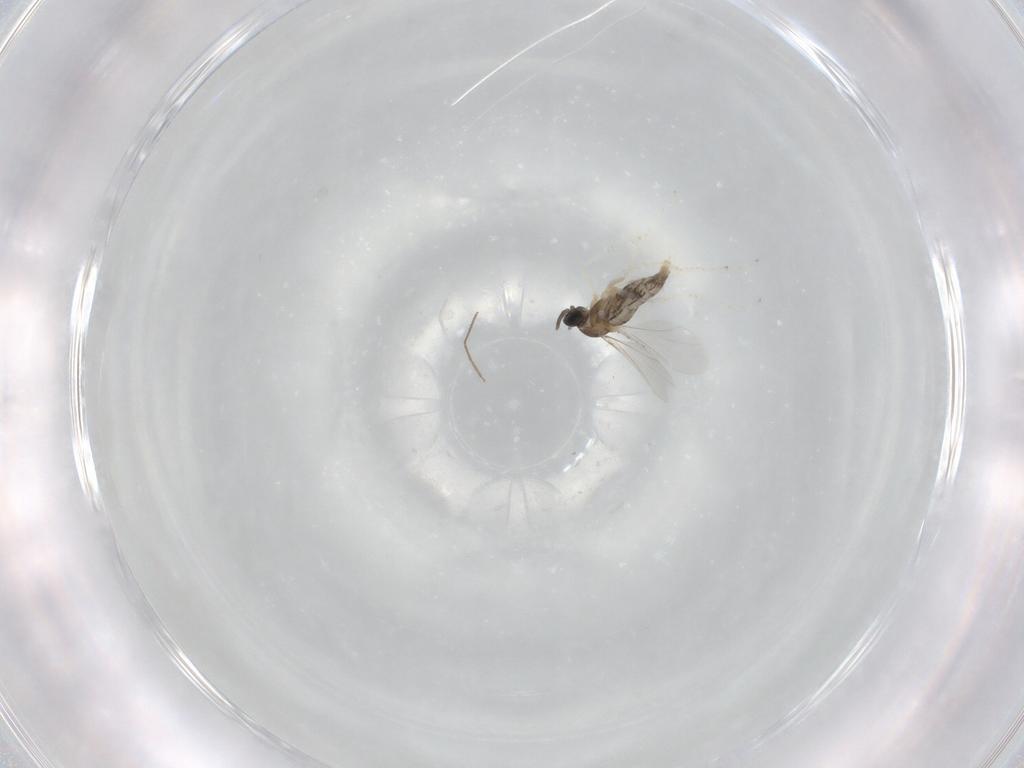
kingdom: Animalia
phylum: Arthropoda
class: Insecta
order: Diptera
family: Cecidomyiidae
